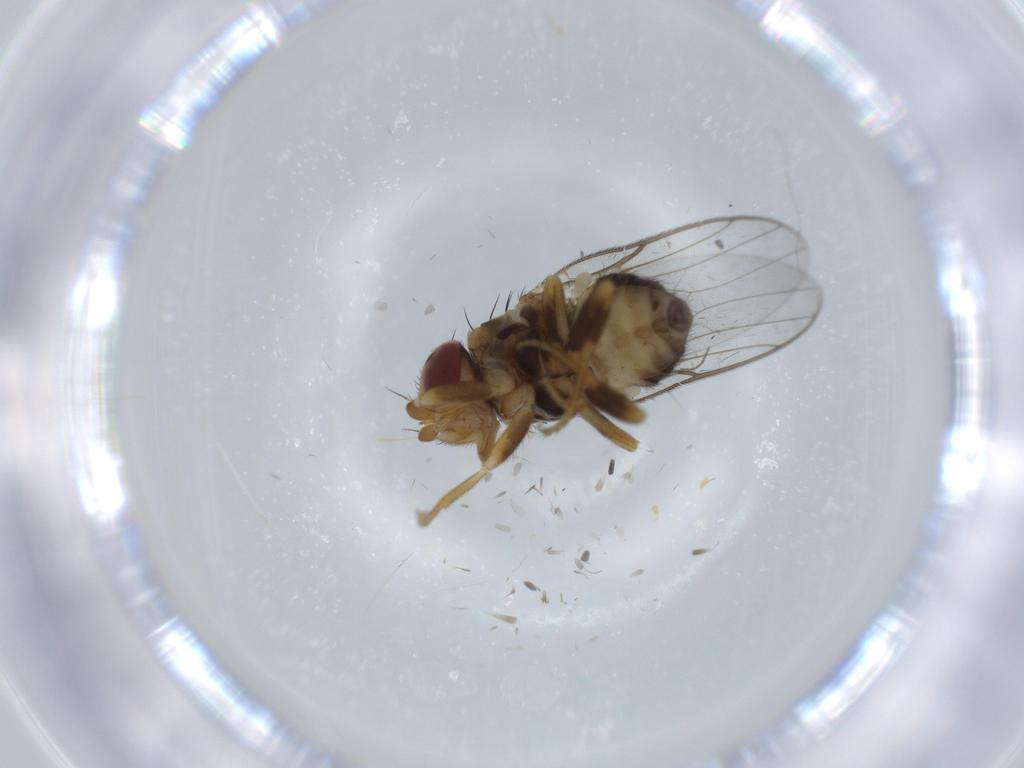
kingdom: Animalia
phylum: Arthropoda
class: Insecta
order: Diptera
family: Chloropidae
